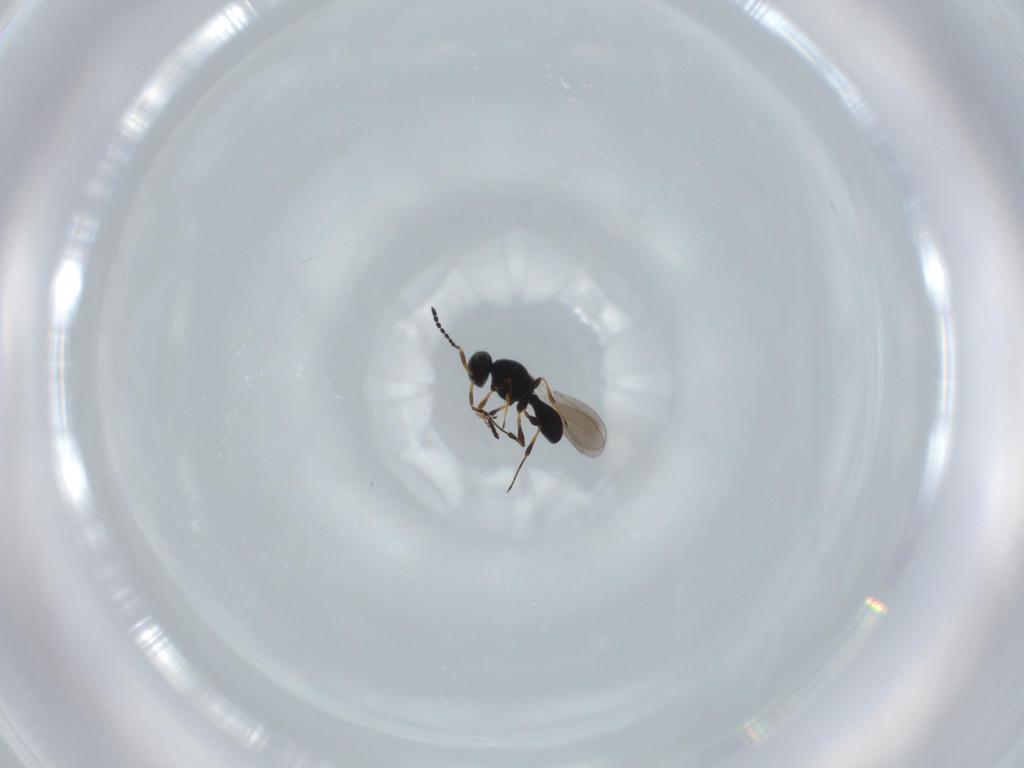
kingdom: Animalia
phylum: Arthropoda
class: Insecta
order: Hymenoptera
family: Platygastridae
